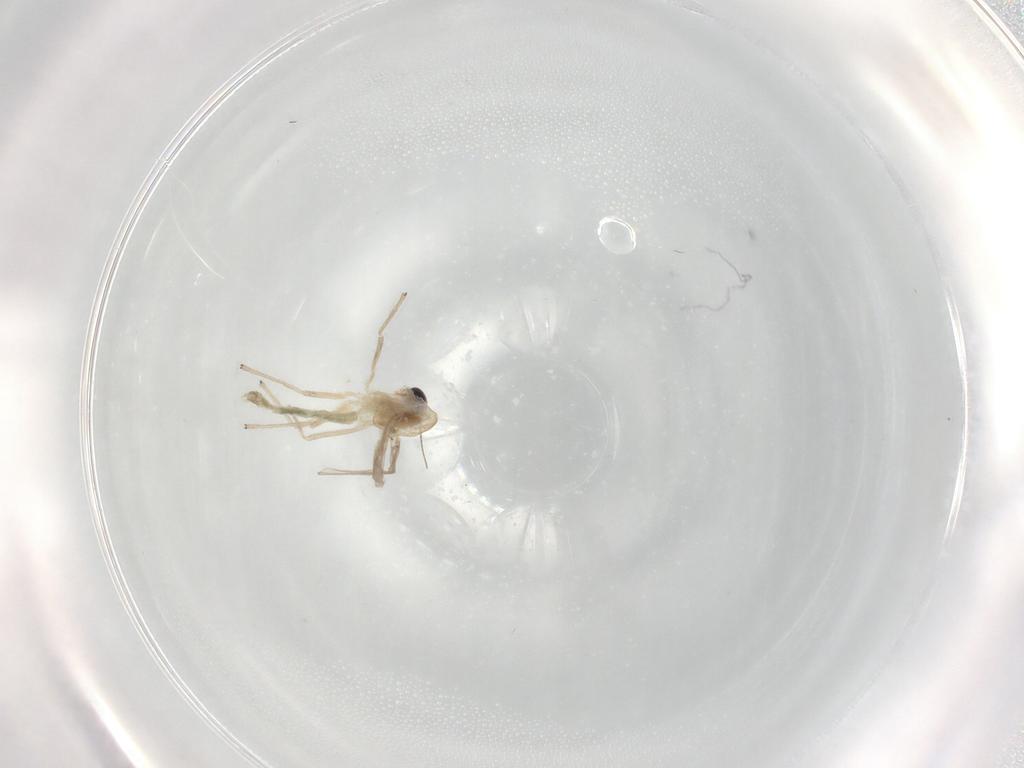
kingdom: Animalia
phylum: Arthropoda
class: Insecta
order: Diptera
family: Chironomidae
